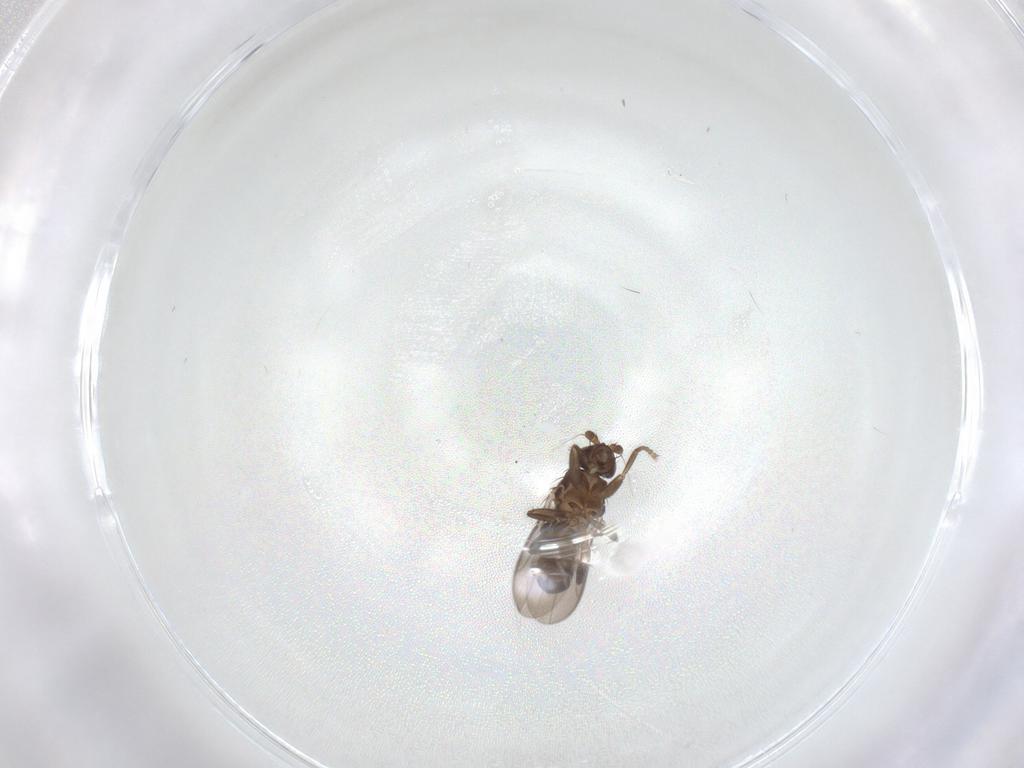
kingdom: Animalia
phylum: Arthropoda
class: Insecta
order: Diptera
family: Sphaeroceridae
